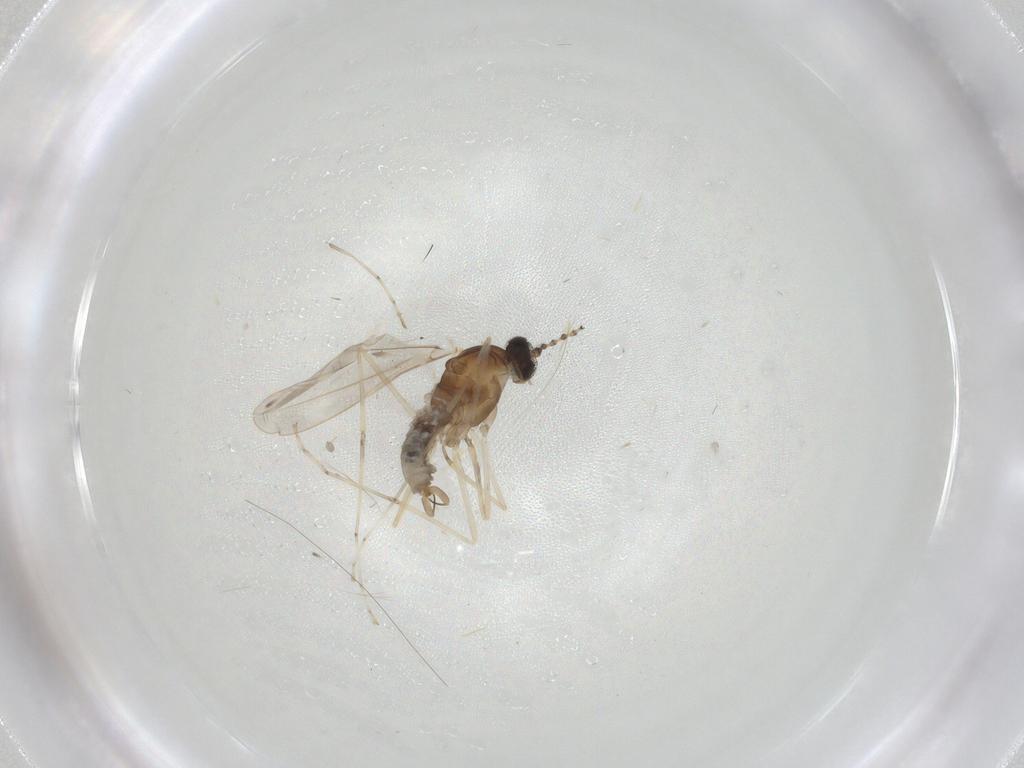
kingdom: Animalia
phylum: Arthropoda
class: Insecta
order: Diptera
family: Cecidomyiidae
